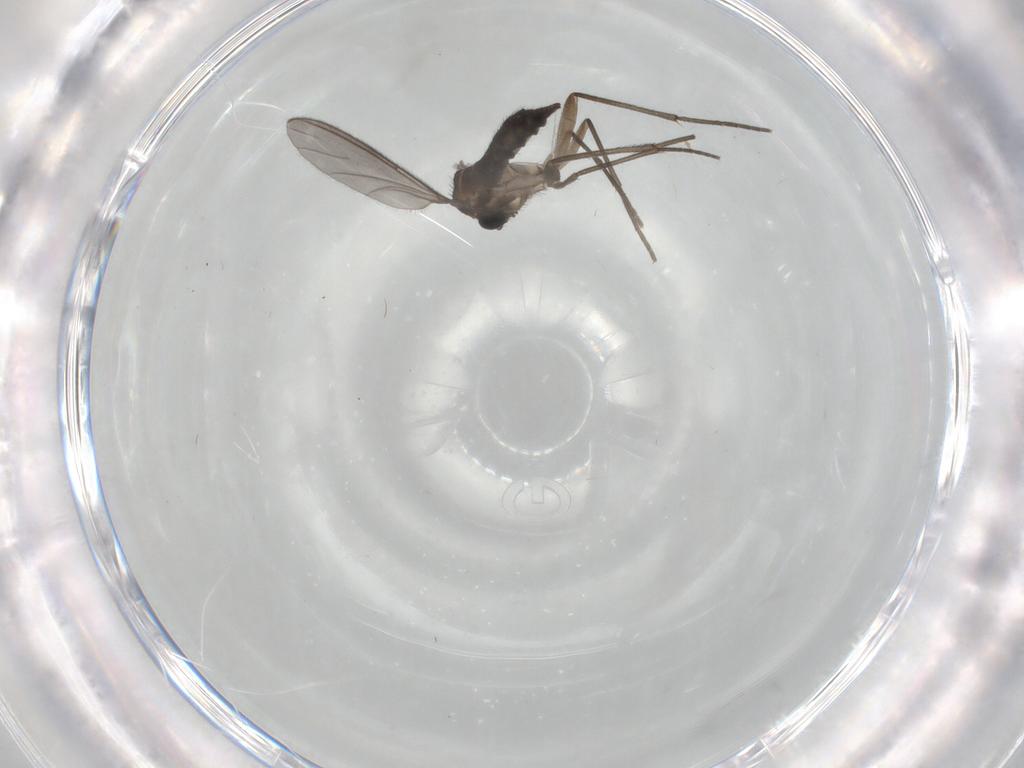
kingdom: Animalia
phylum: Arthropoda
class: Insecta
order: Diptera
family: Sciaridae
